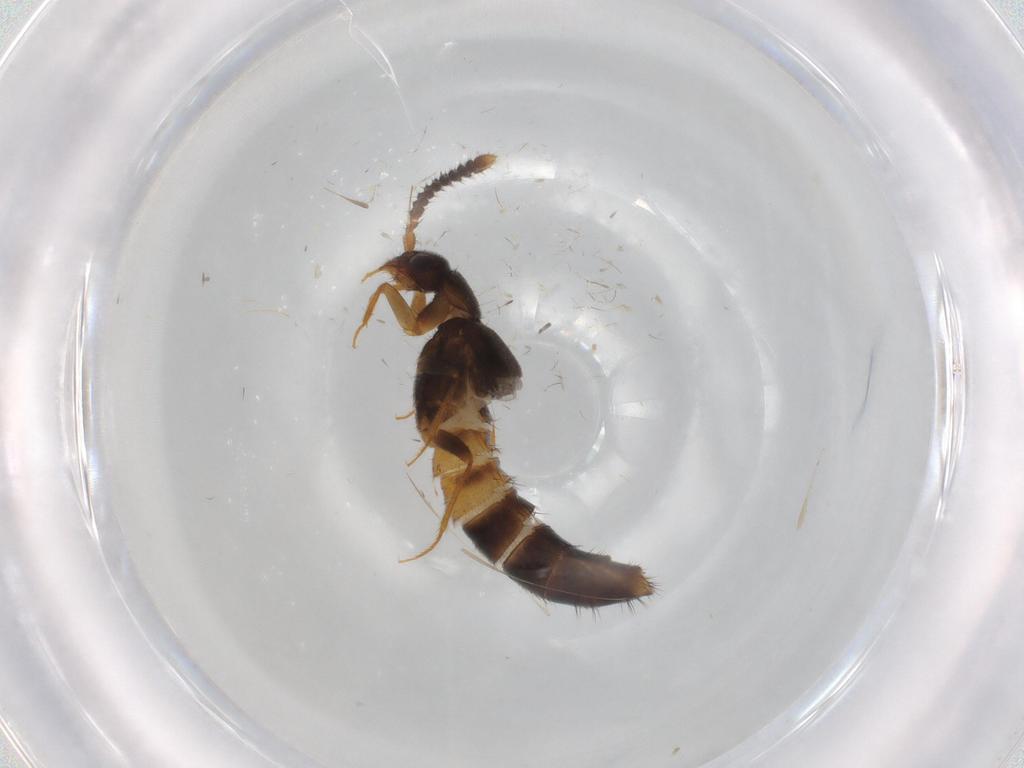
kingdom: Animalia
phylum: Arthropoda
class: Insecta
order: Coleoptera
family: Staphylinidae
